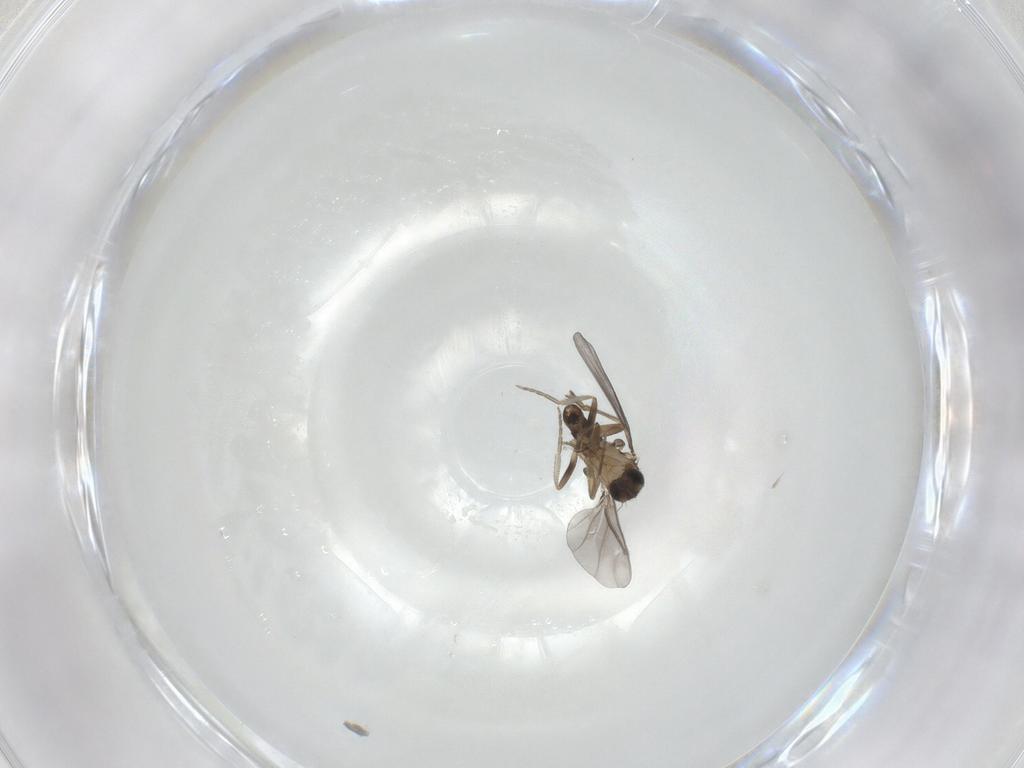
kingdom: Animalia
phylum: Arthropoda
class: Insecta
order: Diptera
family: Phoridae
